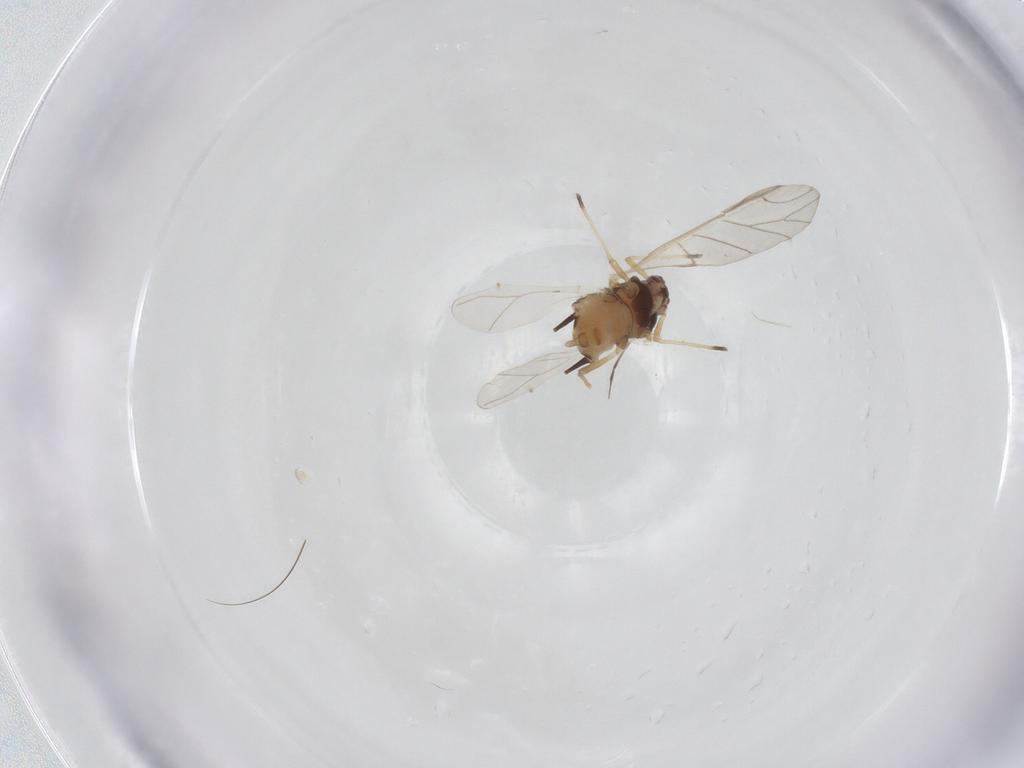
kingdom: Animalia
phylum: Arthropoda
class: Insecta
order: Hemiptera
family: Aphididae
